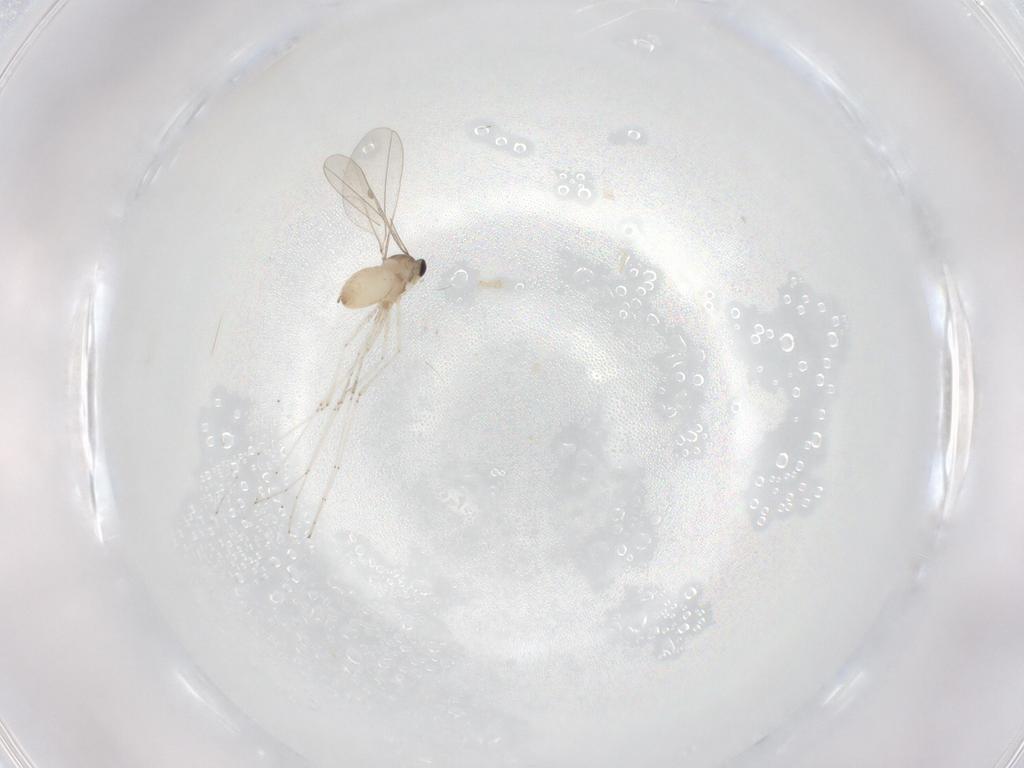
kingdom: Animalia
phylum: Arthropoda
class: Insecta
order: Diptera
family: Cecidomyiidae
